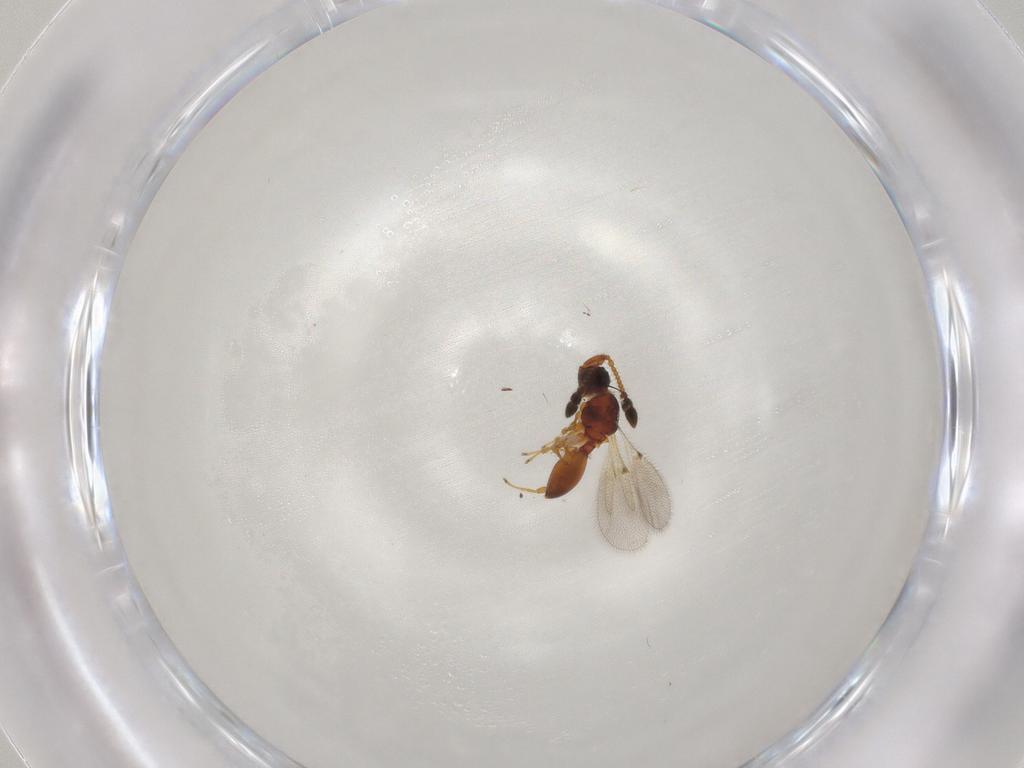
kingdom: Animalia
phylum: Arthropoda
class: Insecta
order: Hymenoptera
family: Diapriidae
